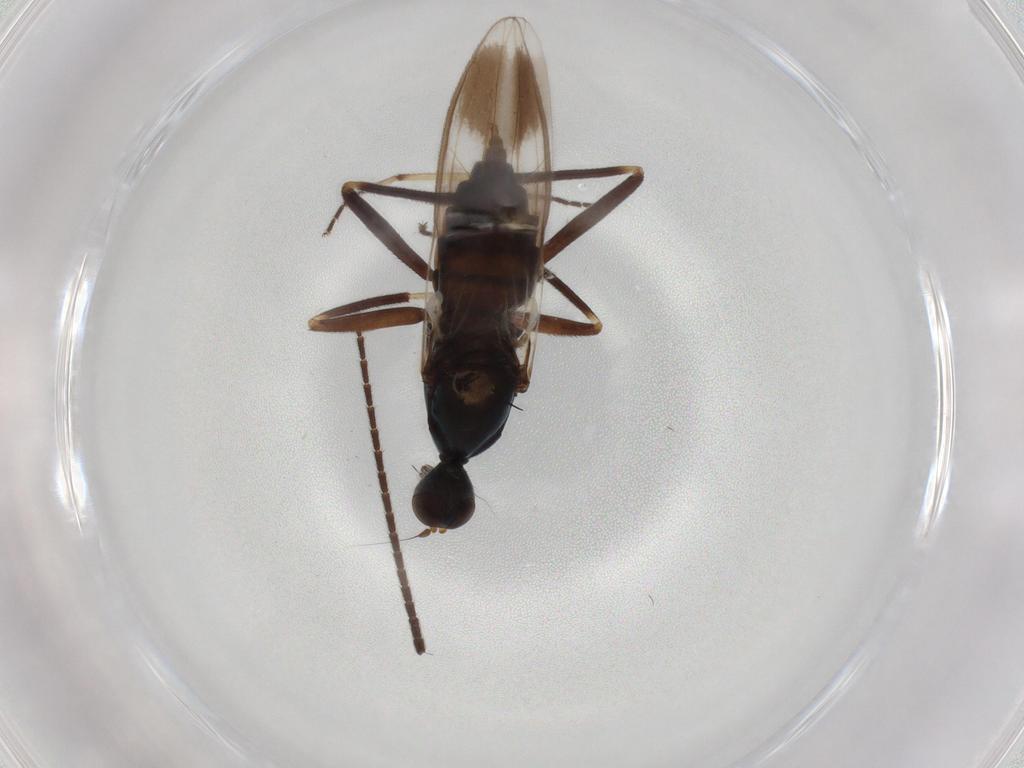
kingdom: Animalia
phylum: Arthropoda
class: Insecta
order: Diptera
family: Hybotidae
